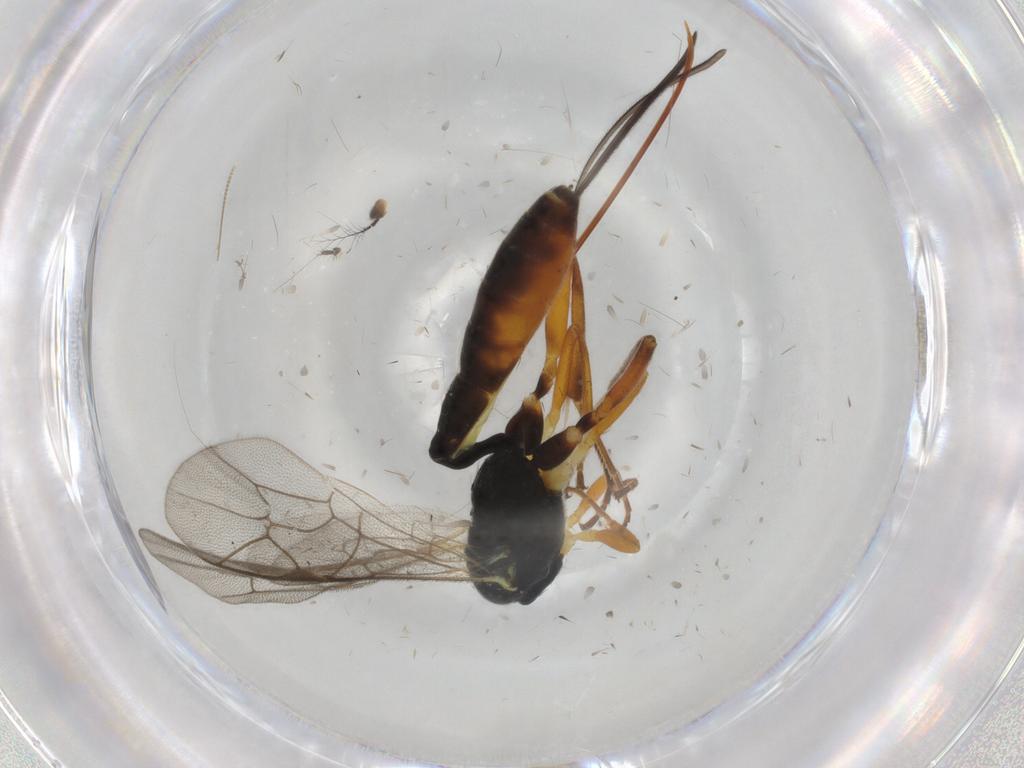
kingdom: Animalia
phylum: Arthropoda
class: Insecta
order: Hymenoptera
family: Ichneumonidae
